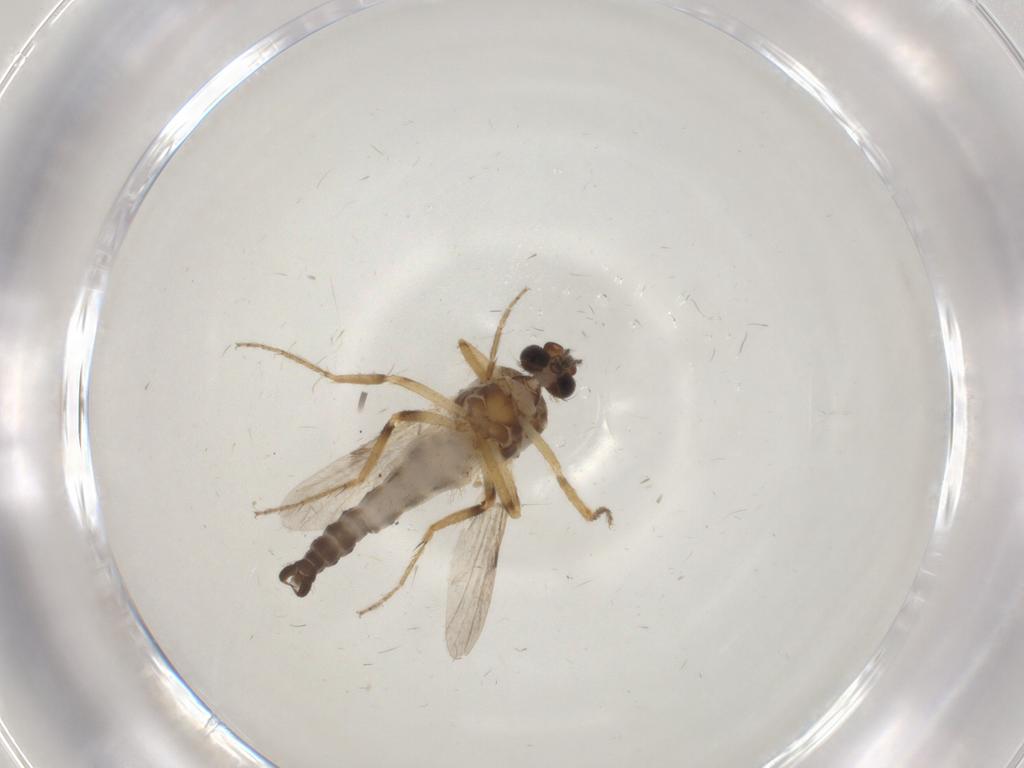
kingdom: Animalia
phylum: Arthropoda
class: Insecta
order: Diptera
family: Ceratopogonidae
